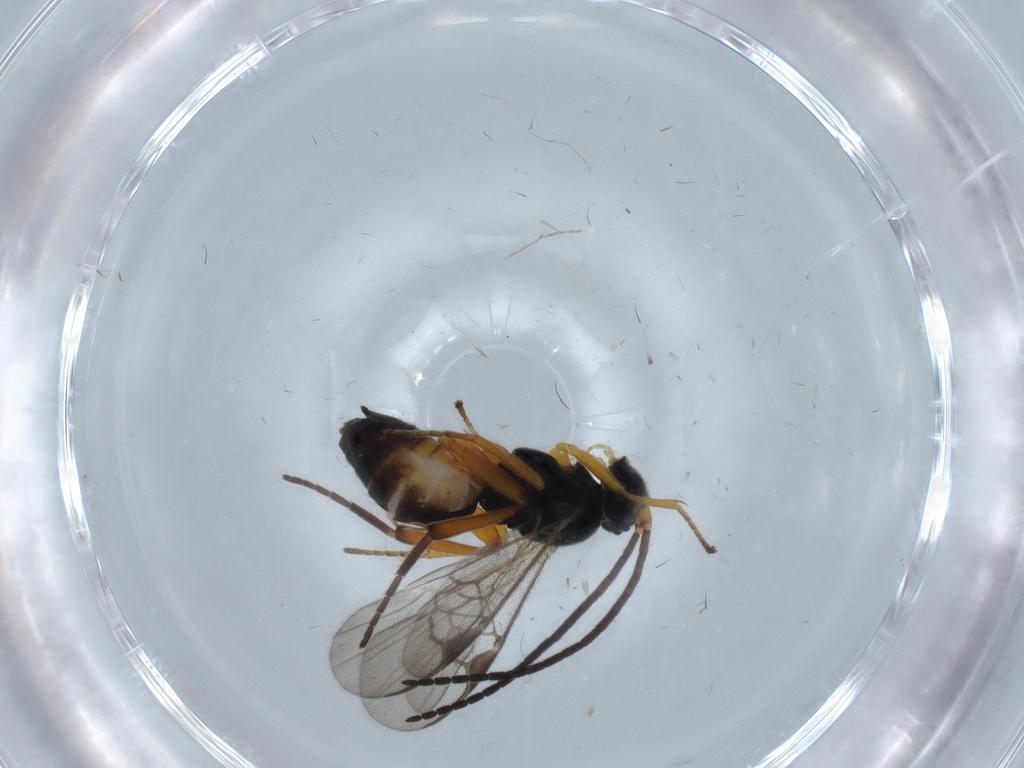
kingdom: Animalia
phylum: Arthropoda
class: Insecta
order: Hymenoptera
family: Braconidae
